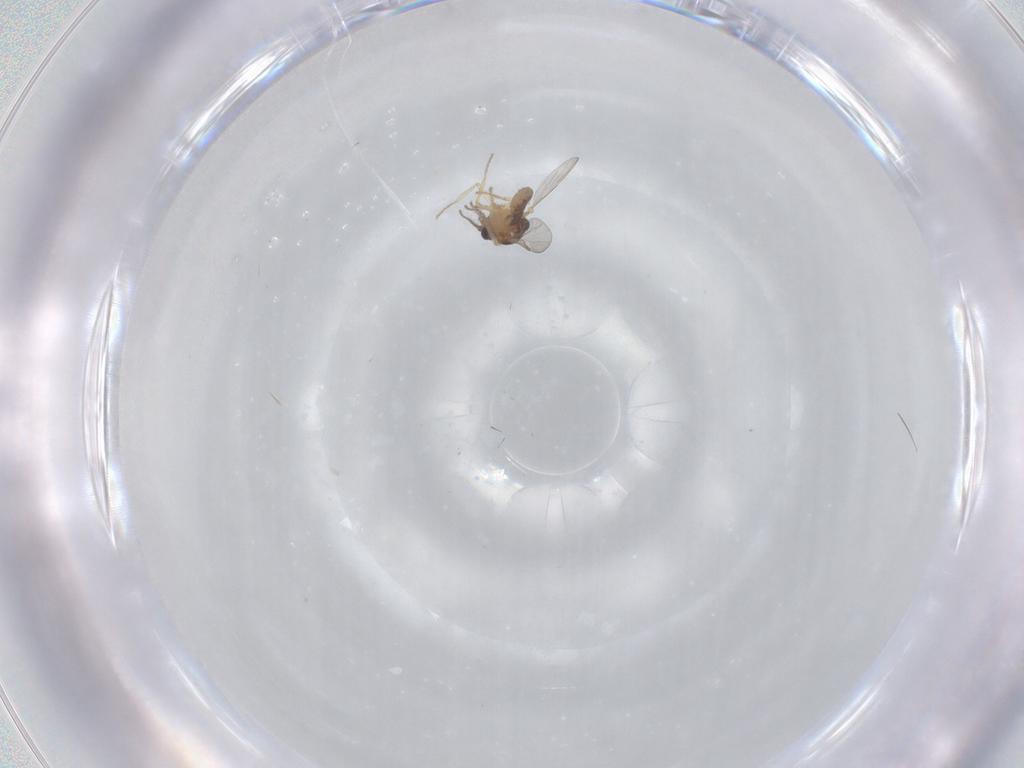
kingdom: Animalia
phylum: Arthropoda
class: Insecta
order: Diptera
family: Ceratopogonidae
